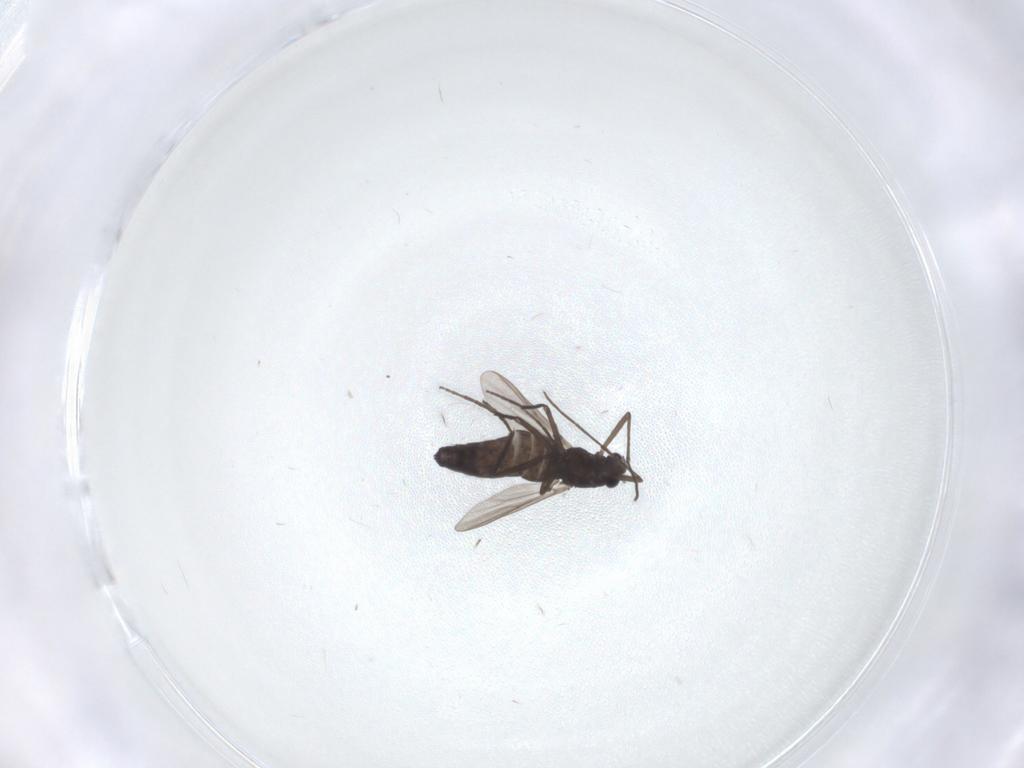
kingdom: Animalia
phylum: Arthropoda
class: Insecta
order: Diptera
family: Chironomidae
